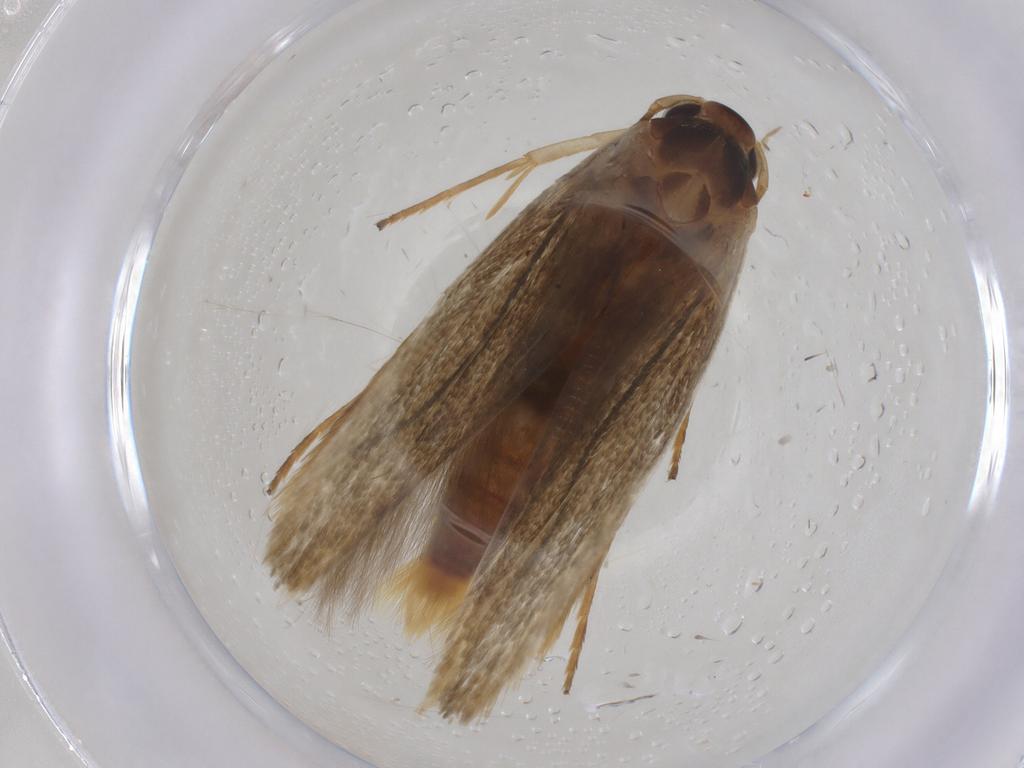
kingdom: Animalia
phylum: Arthropoda
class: Insecta
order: Lepidoptera
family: Stathmopodidae
